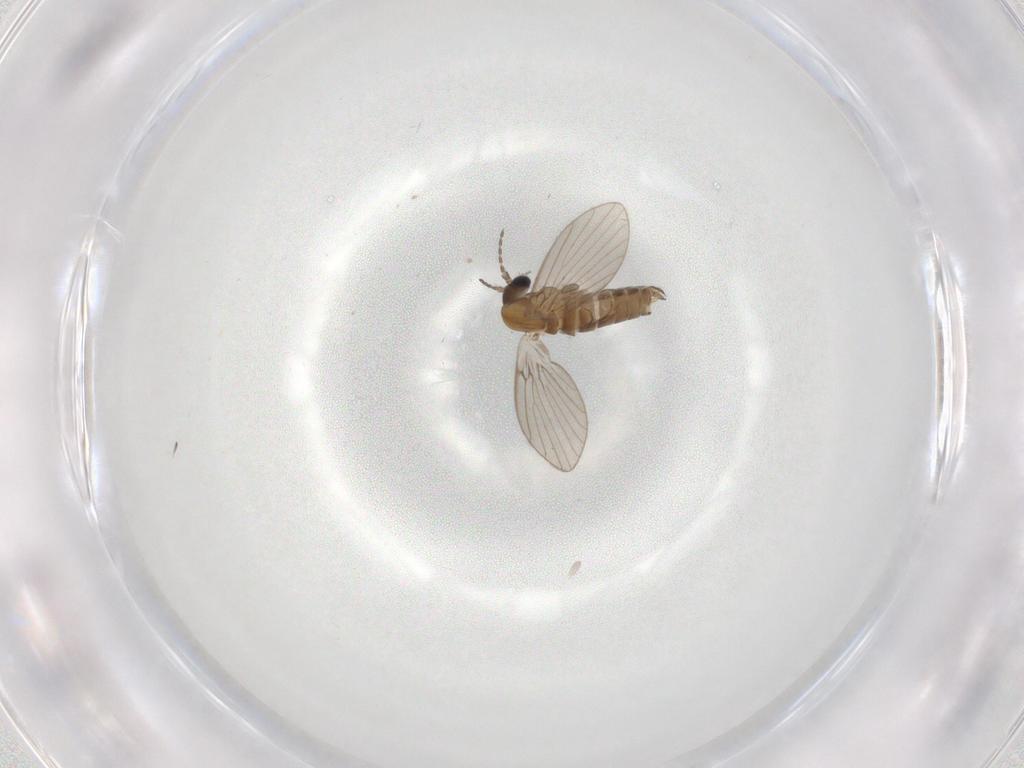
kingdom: Animalia
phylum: Arthropoda
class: Insecta
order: Diptera
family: Psychodidae
